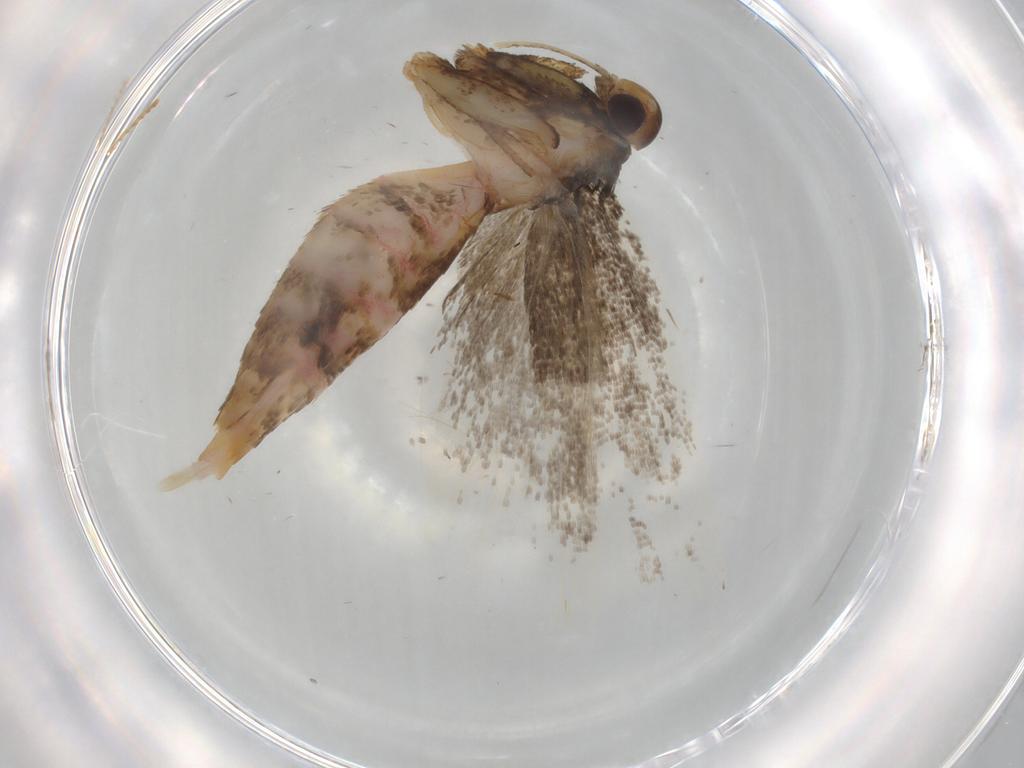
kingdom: Animalia
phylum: Arthropoda
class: Insecta
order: Lepidoptera
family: Lecithoceridae
